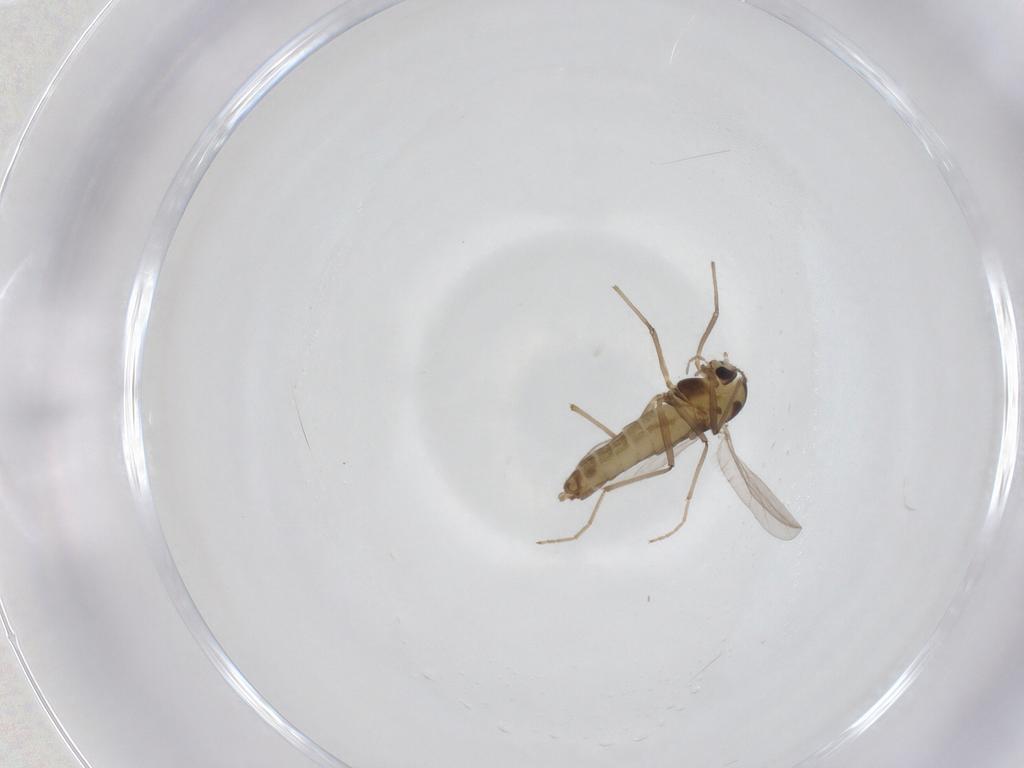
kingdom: Animalia
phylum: Arthropoda
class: Insecta
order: Diptera
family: Chironomidae
